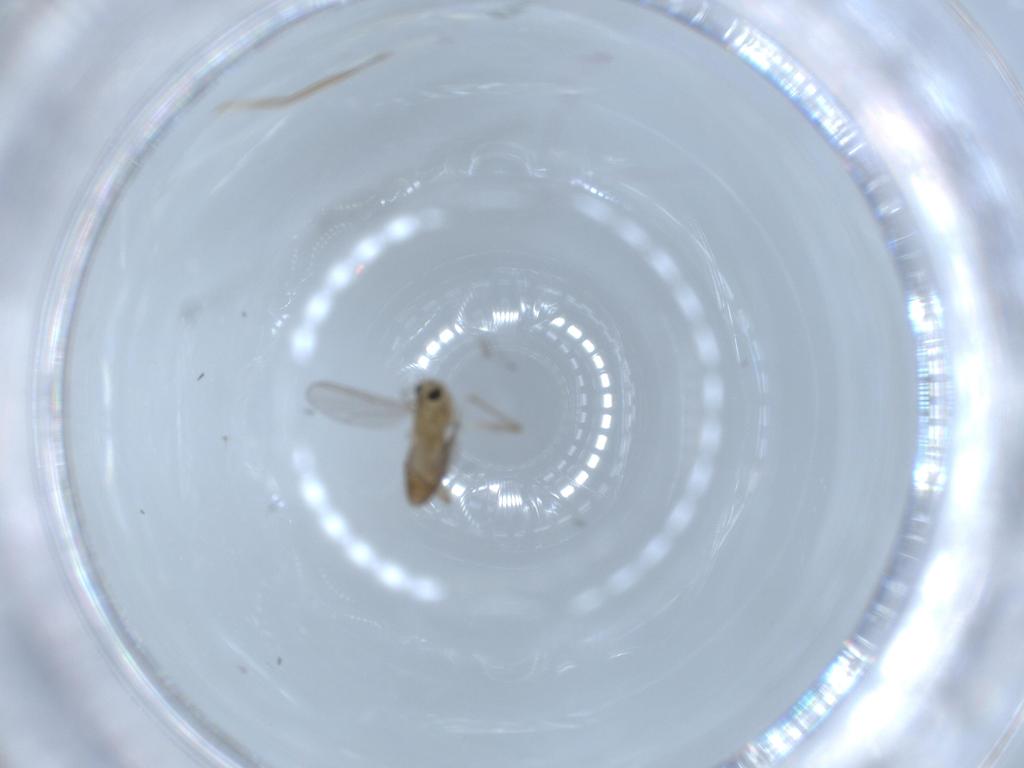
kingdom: Animalia
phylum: Arthropoda
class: Insecta
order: Diptera
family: Chironomidae
